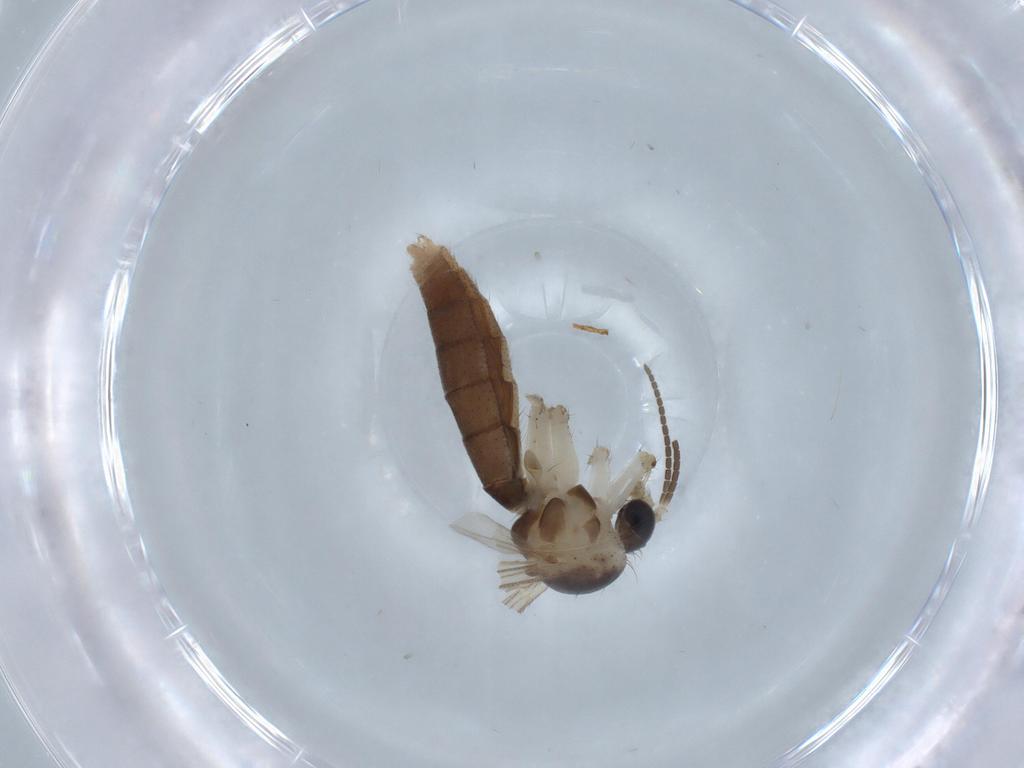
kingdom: Animalia
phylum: Arthropoda
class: Insecta
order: Diptera
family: Mycetophilidae
